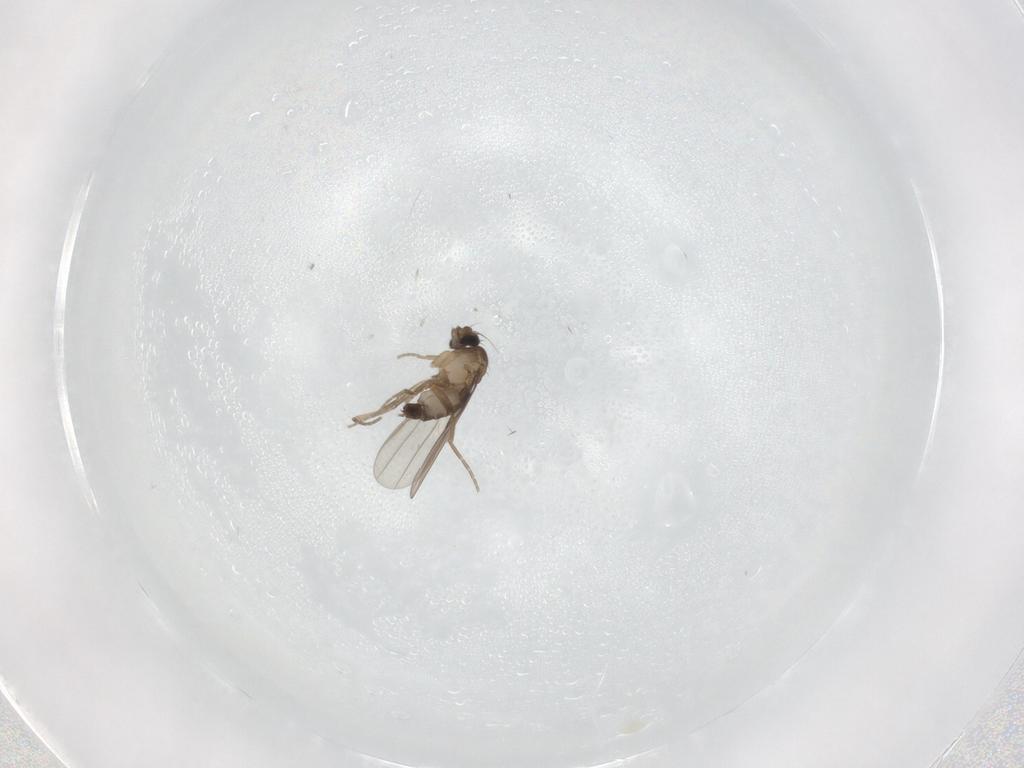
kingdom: Animalia
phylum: Arthropoda
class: Insecta
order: Diptera
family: Phoridae
